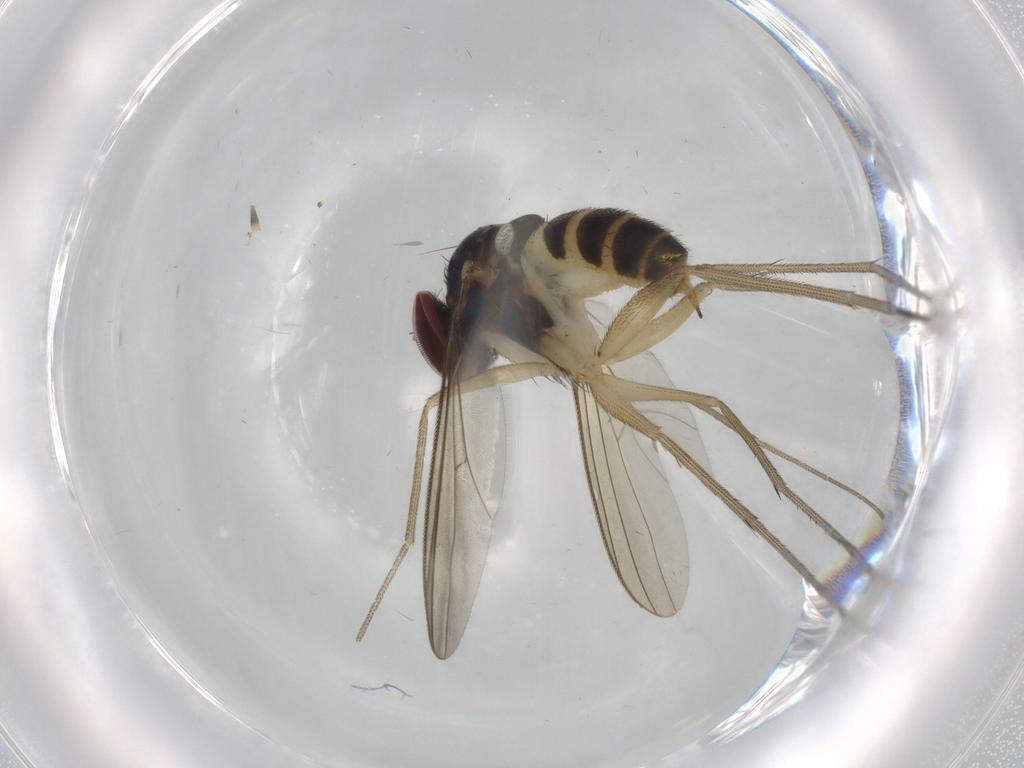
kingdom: Animalia
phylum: Arthropoda
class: Insecta
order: Diptera
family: Dolichopodidae
